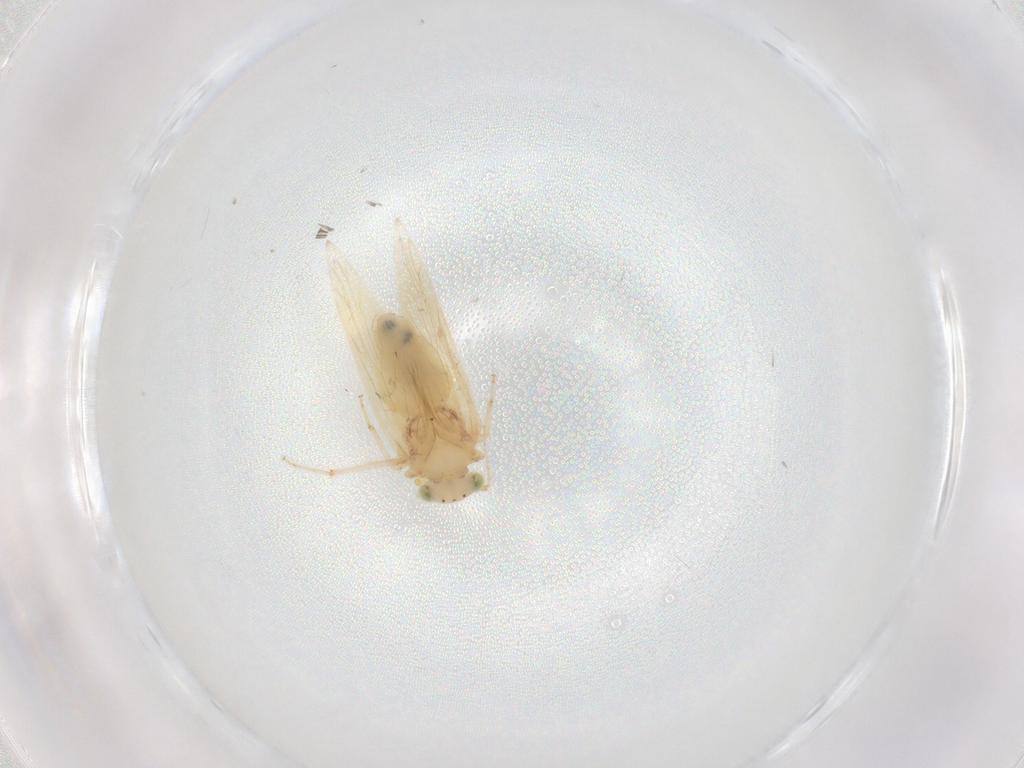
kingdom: Animalia
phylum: Arthropoda
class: Insecta
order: Psocodea
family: Lepidopsocidae
